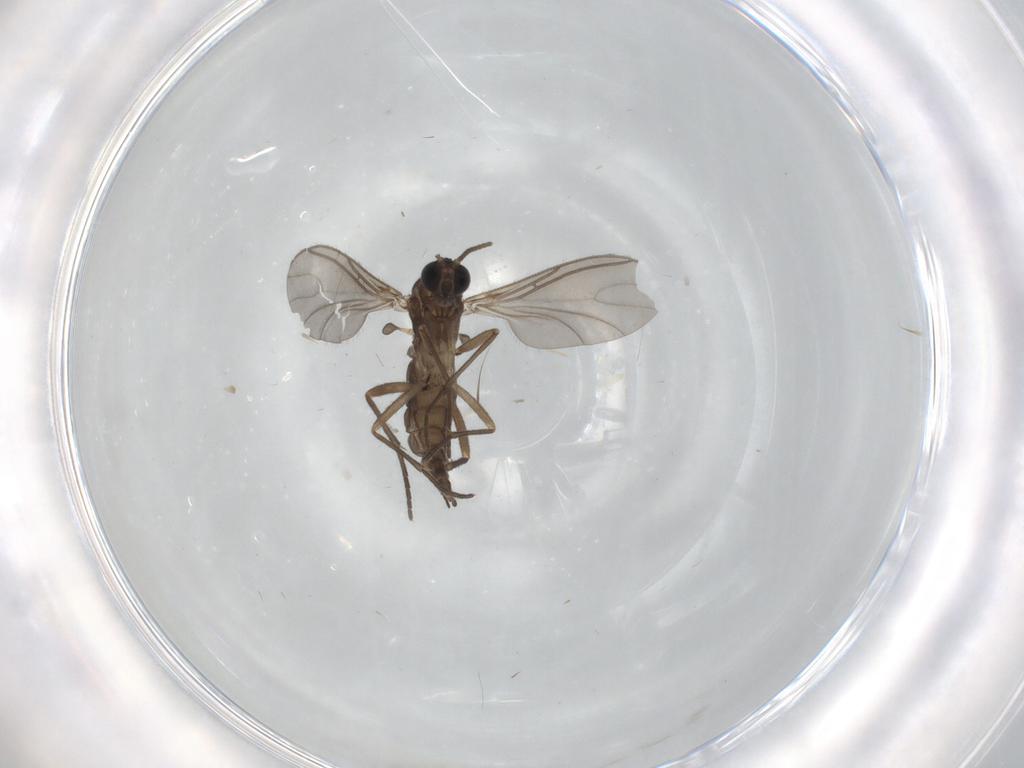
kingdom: Animalia
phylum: Arthropoda
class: Insecta
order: Diptera
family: Sciaridae
